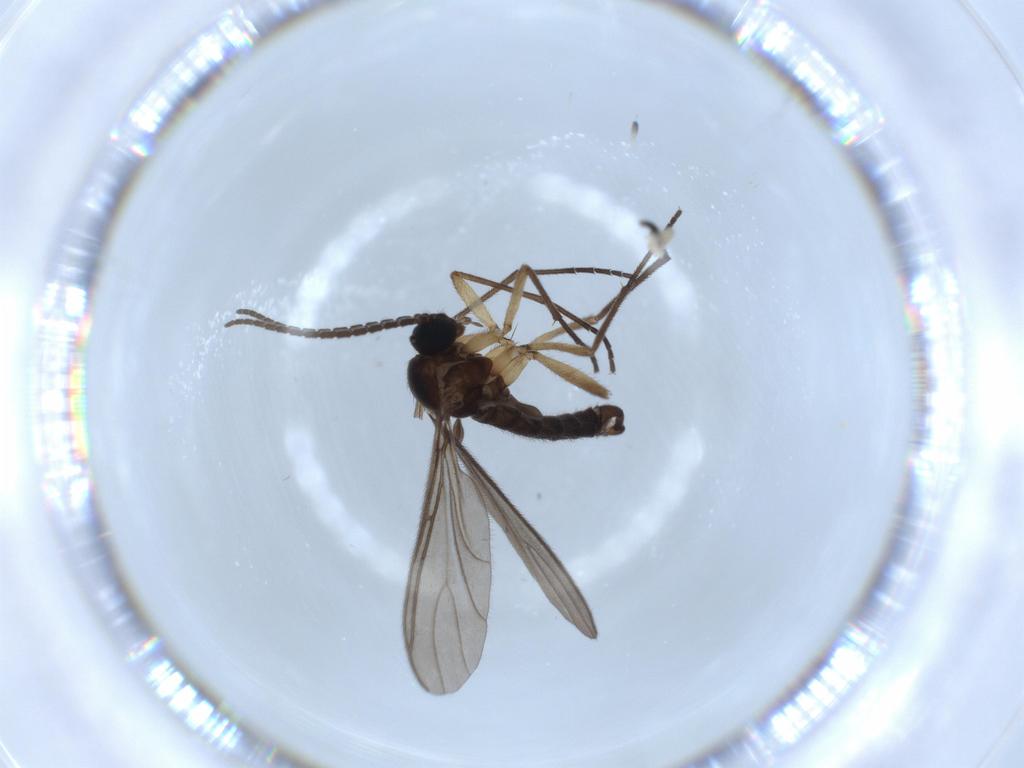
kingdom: Animalia
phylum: Arthropoda
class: Insecta
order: Diptera
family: Sciaridae
